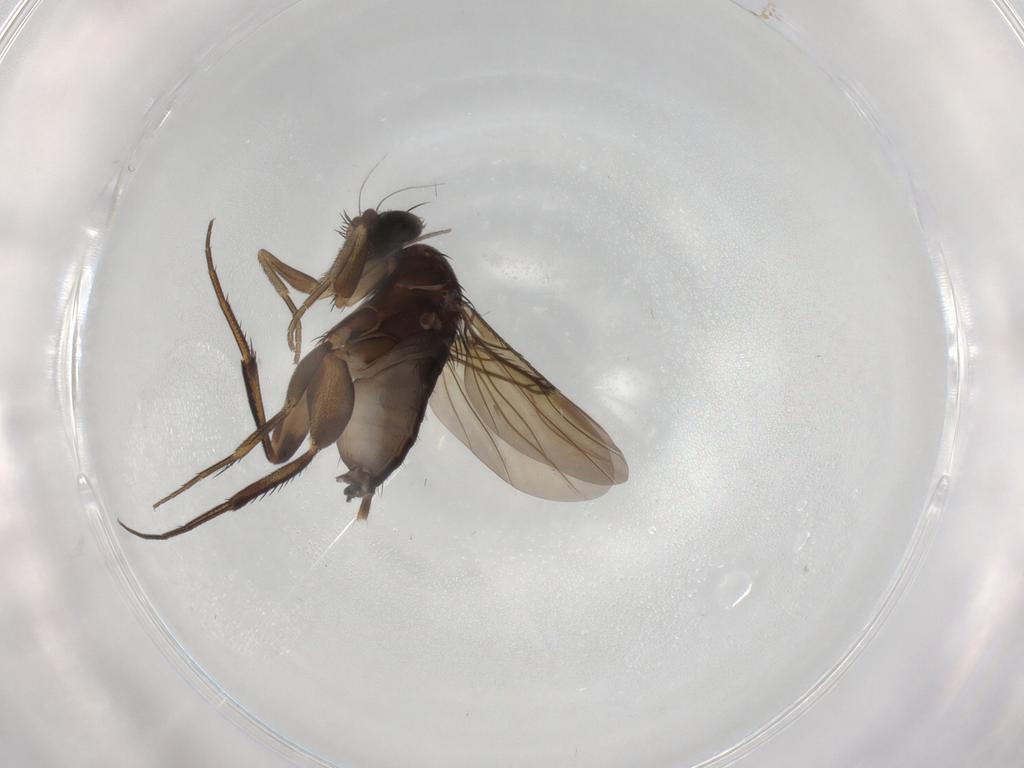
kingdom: Animalia
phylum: Arthropoda
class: Insecta
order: Diptera
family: Phoridae
